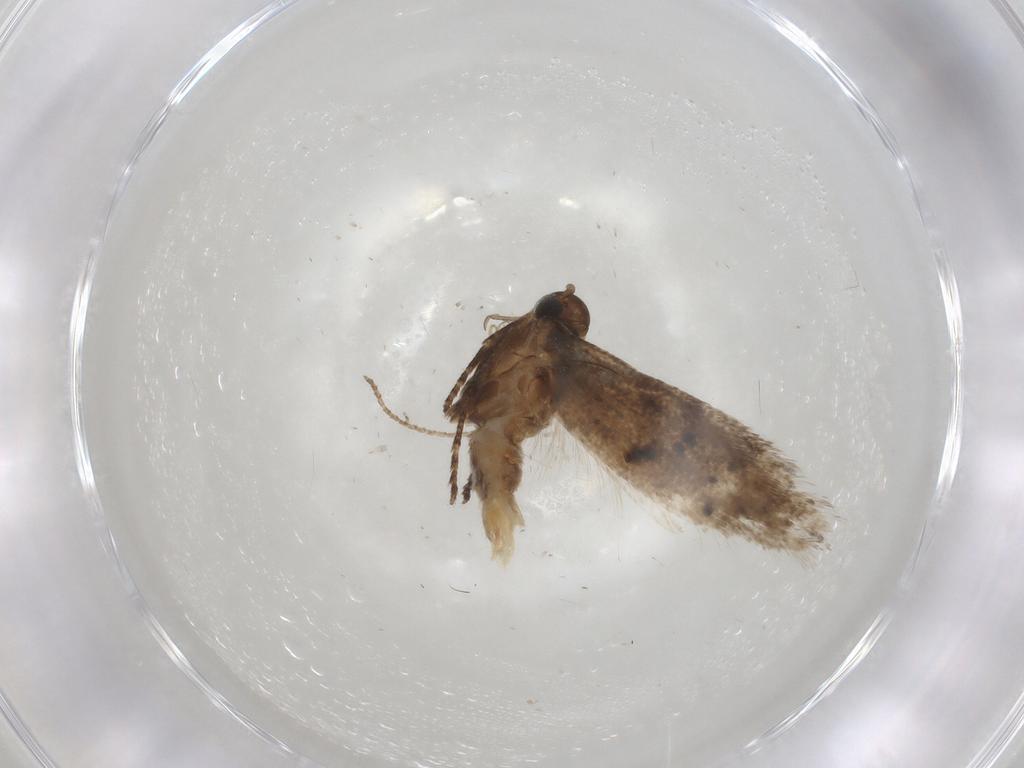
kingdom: Animalia
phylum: Arthropoda
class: Insecta
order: Lepidoptera
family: Gelechiidae
